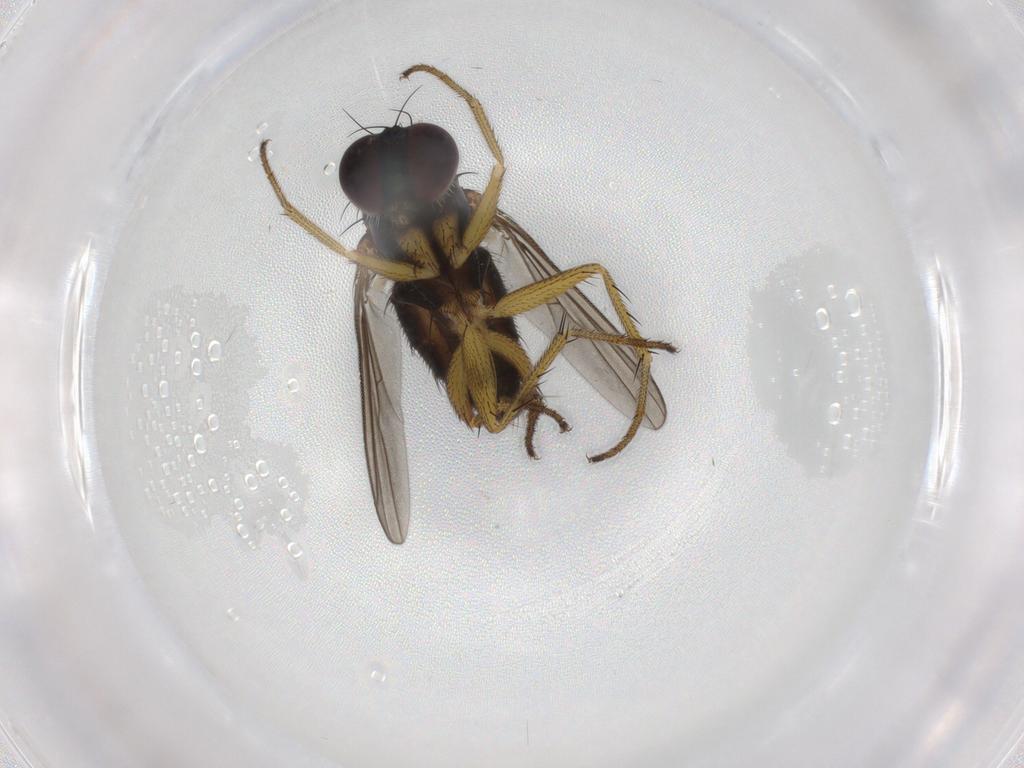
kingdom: Animalia
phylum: Arthropoda
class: Insecta
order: Diptera
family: Dolichopodidae
